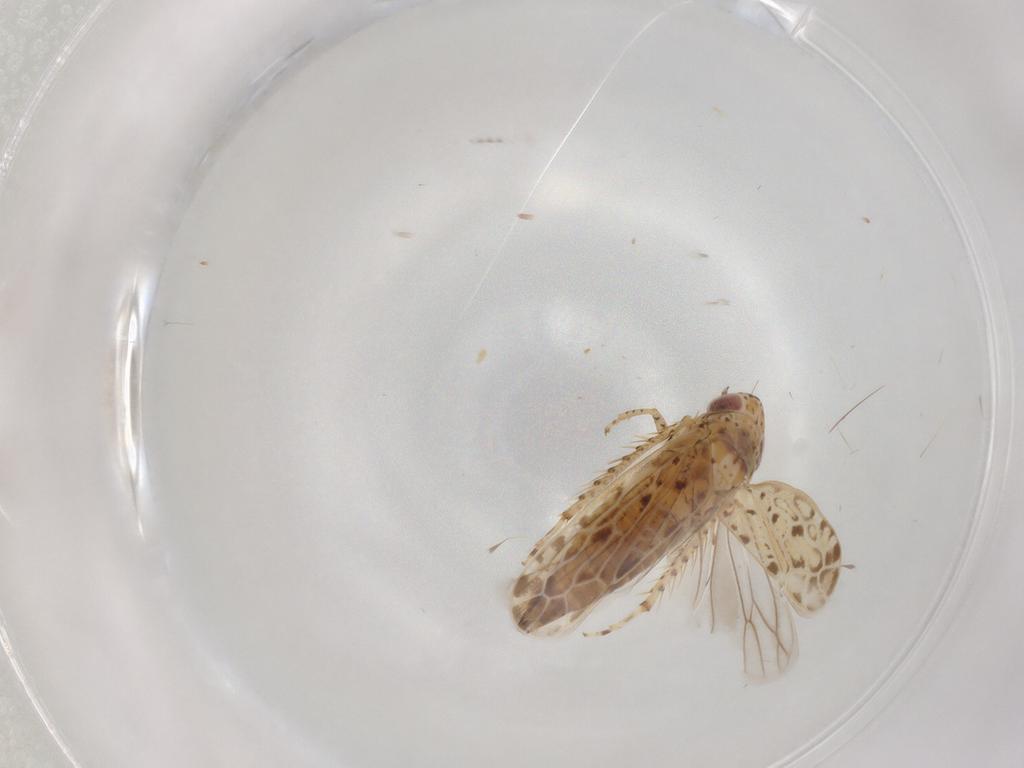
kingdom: Animalia
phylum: Arthropoda
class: Insecta
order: Hemiptera
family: Cicadellidae
